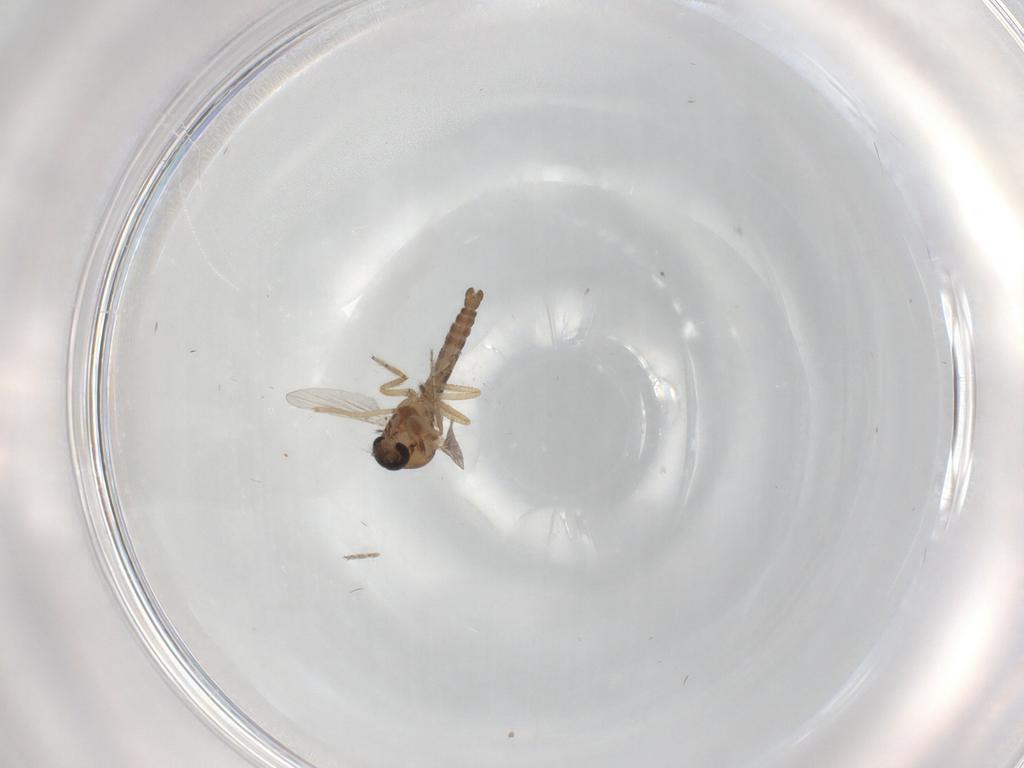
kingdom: Animalia
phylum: Arthropoda
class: Insecta
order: Diptera
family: Ceratopogonidae
